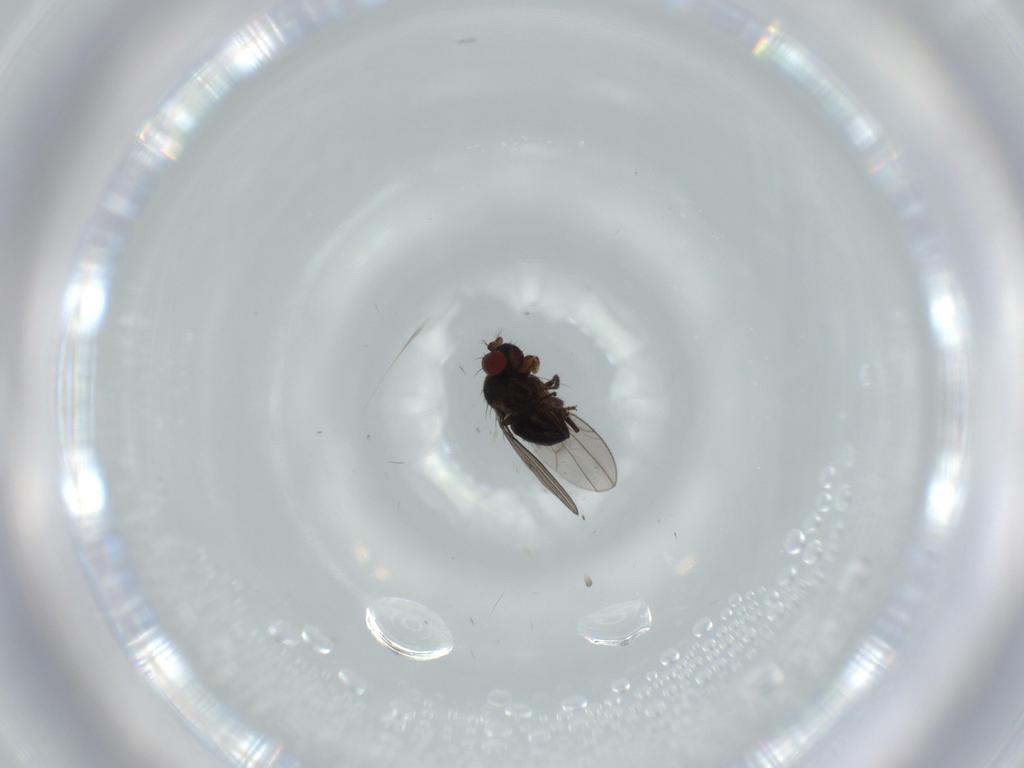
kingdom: Animalia
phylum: Arthropoda
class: Insecta
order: Diptera
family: Ephydridae
